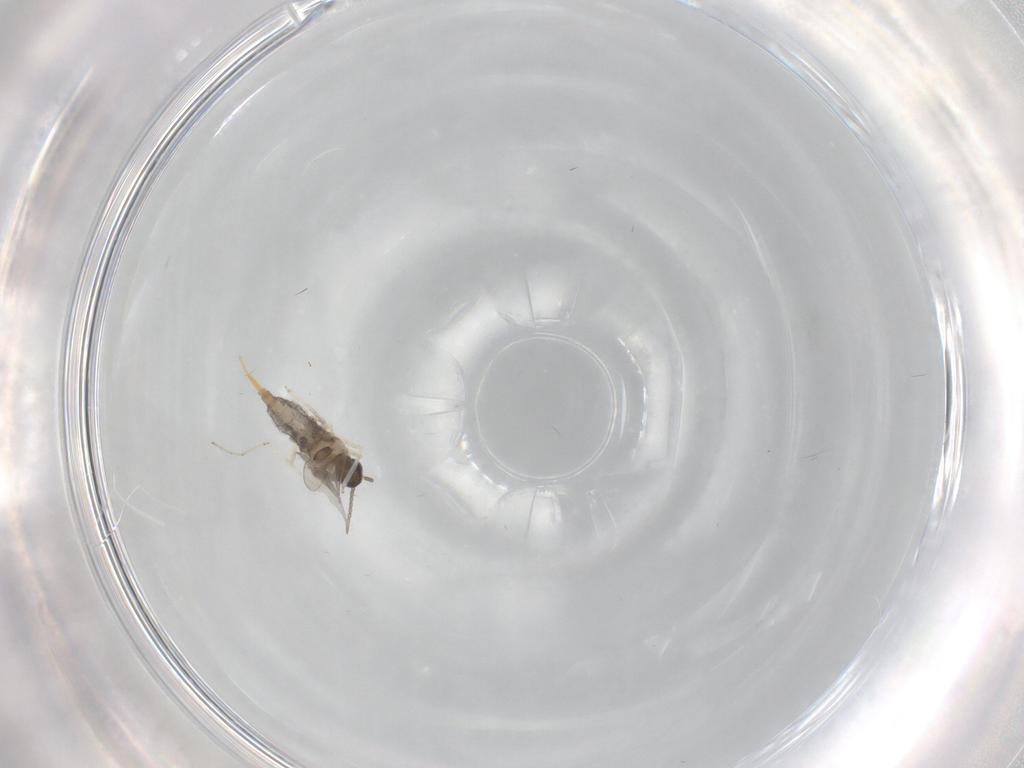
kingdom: Animalia
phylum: Arthropoda
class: Insecta
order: Diptera
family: Cecidomyiidae
